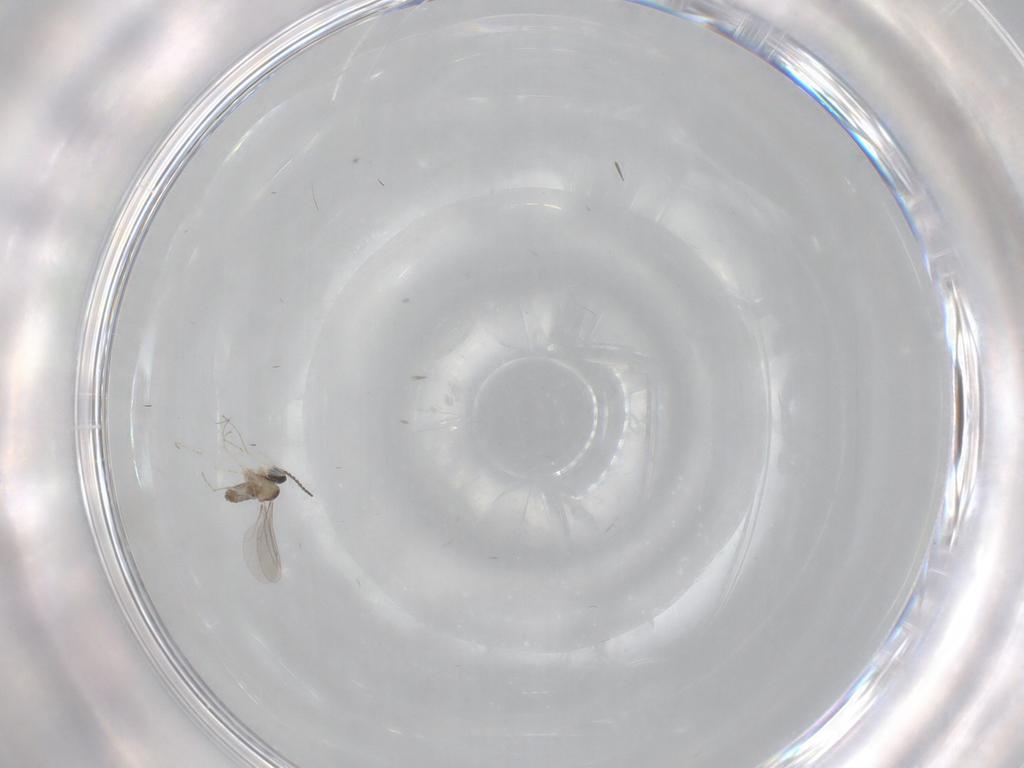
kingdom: Animalia
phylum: Arthropoda
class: Insecta
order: Diptera
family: Cecidomyiidae
